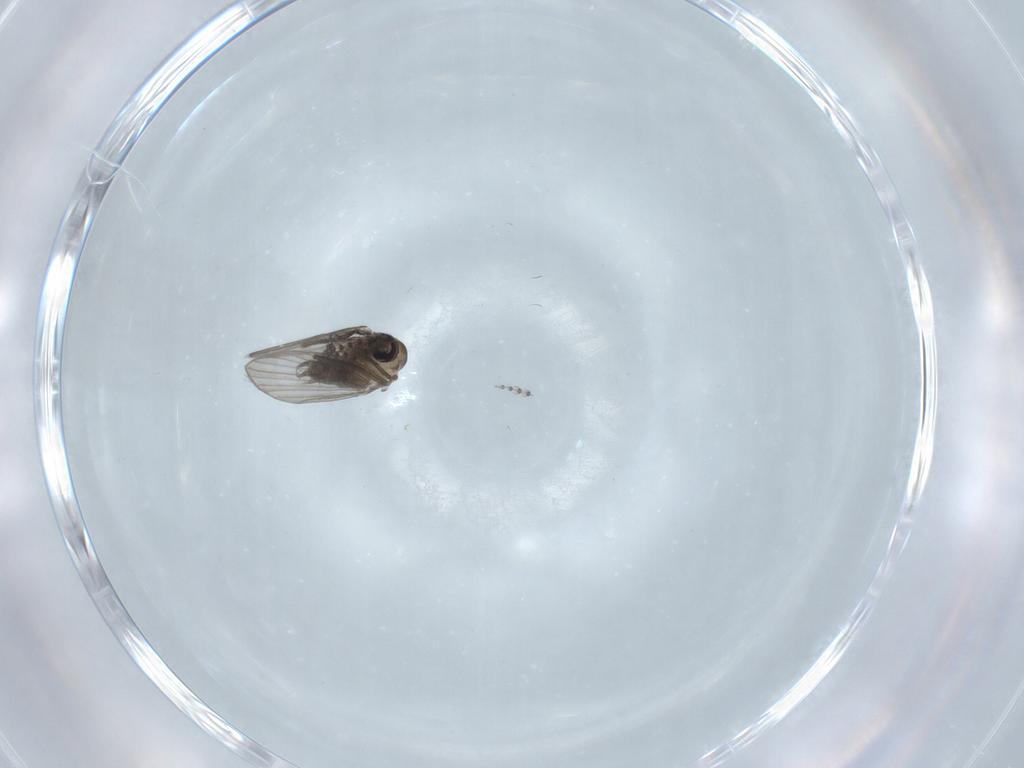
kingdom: Animalia
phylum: Arthropoda
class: Insecta
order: Diptera
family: Psychodidae
